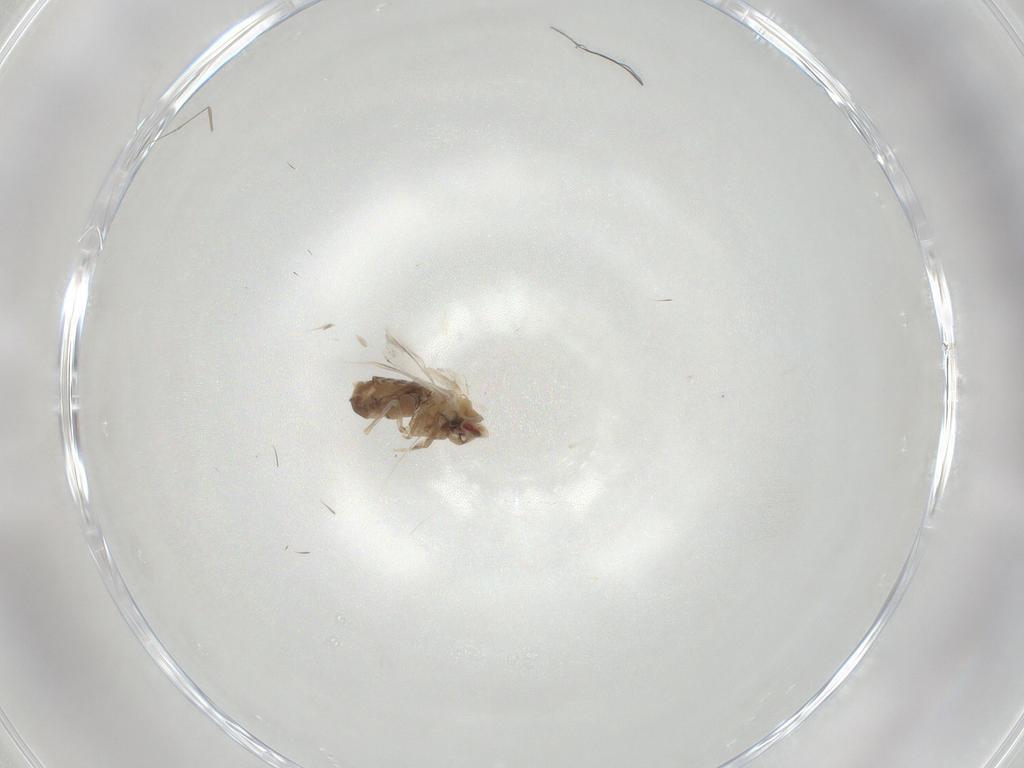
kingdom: Animalia
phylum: Arthropoda
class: Insecta
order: Hemiptera
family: Aleyrodidae
